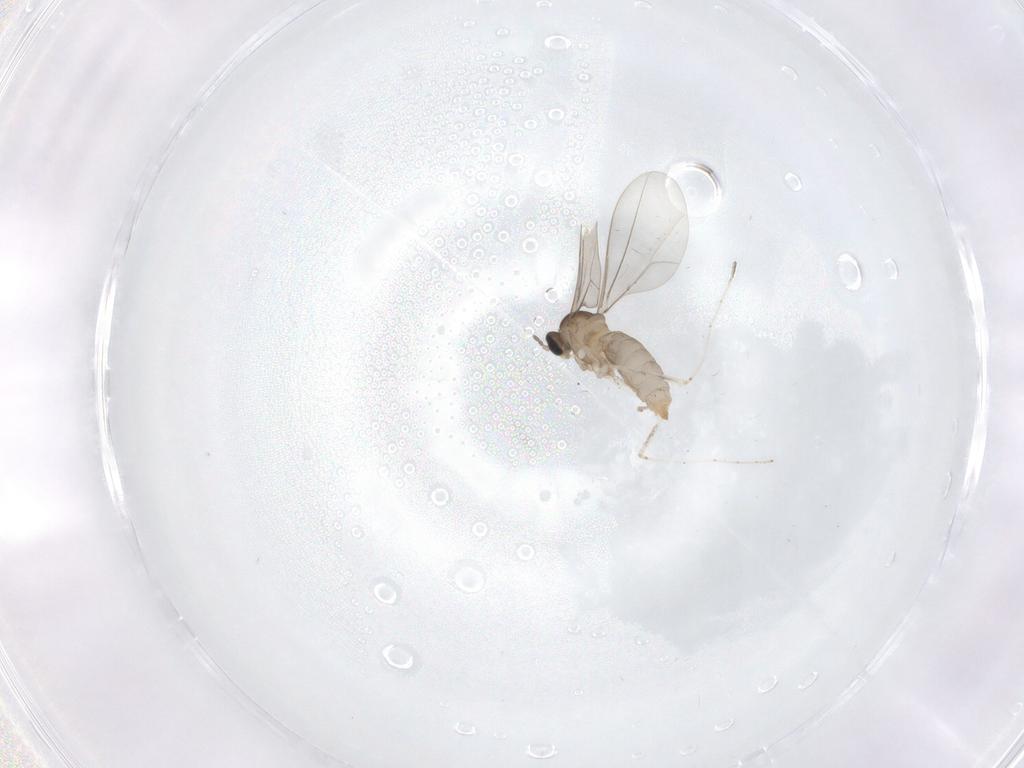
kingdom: Animalia
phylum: Arthropoda
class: Insecta
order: Diptera
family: Cecidomyiidae
